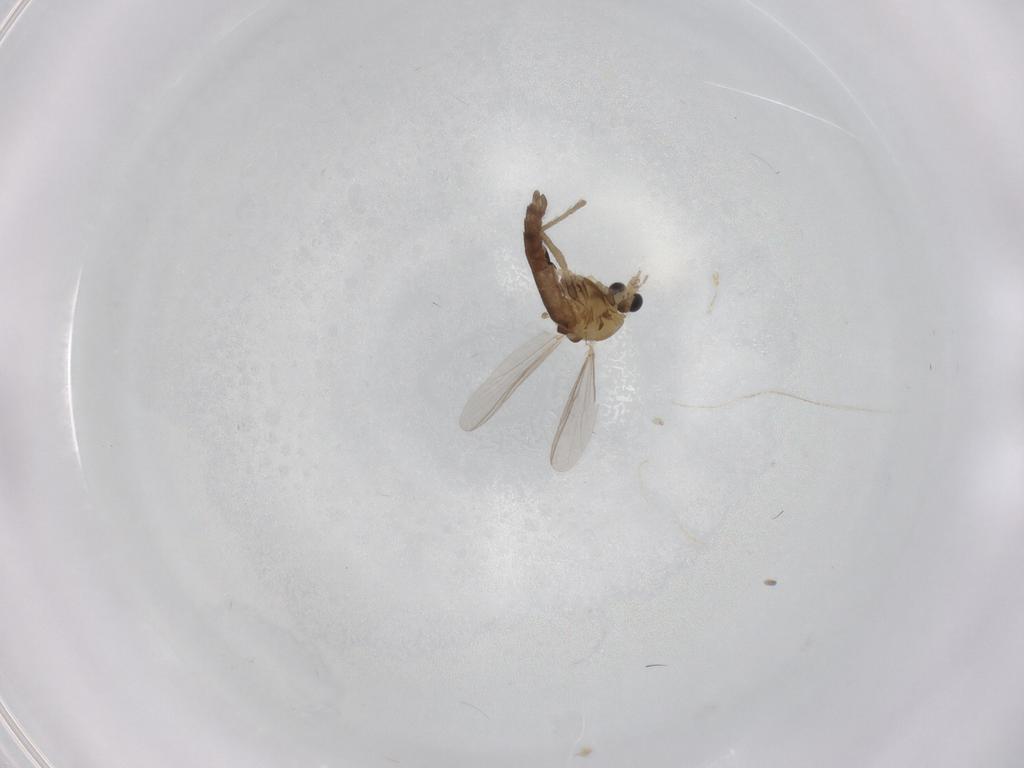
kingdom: Animalia
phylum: Arthropoda
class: Insecta
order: Diptera
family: Chironomidae
